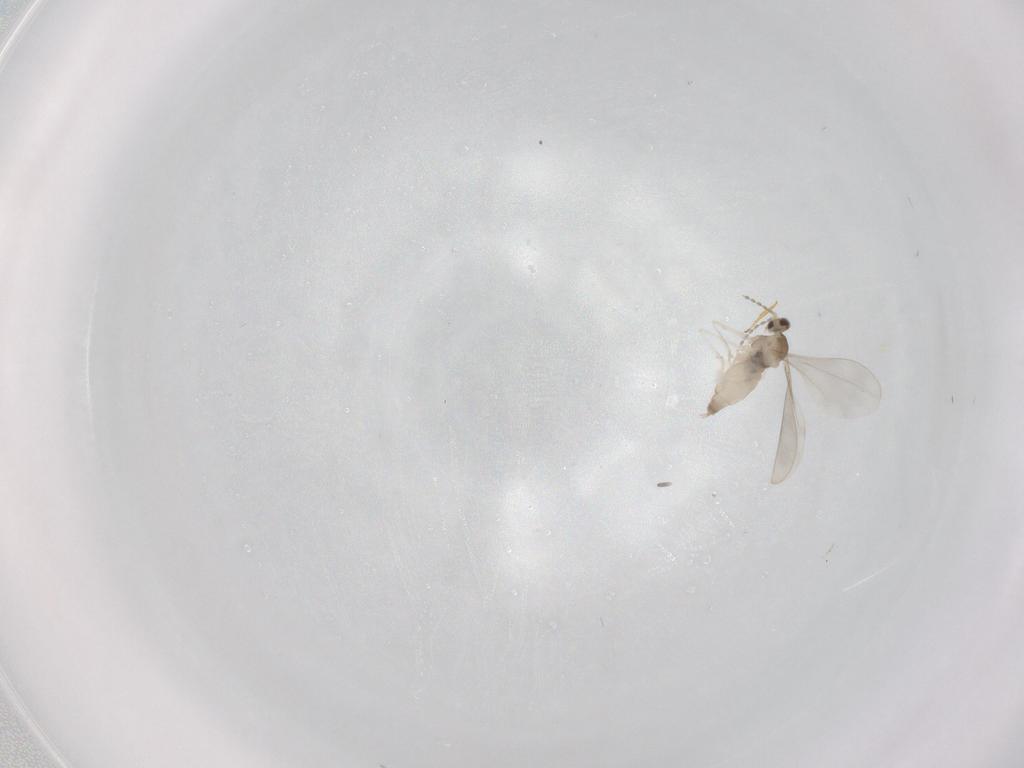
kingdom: Animalia
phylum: Arthropoda
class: Insecta
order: Diptera
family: Cecidomyiidae
